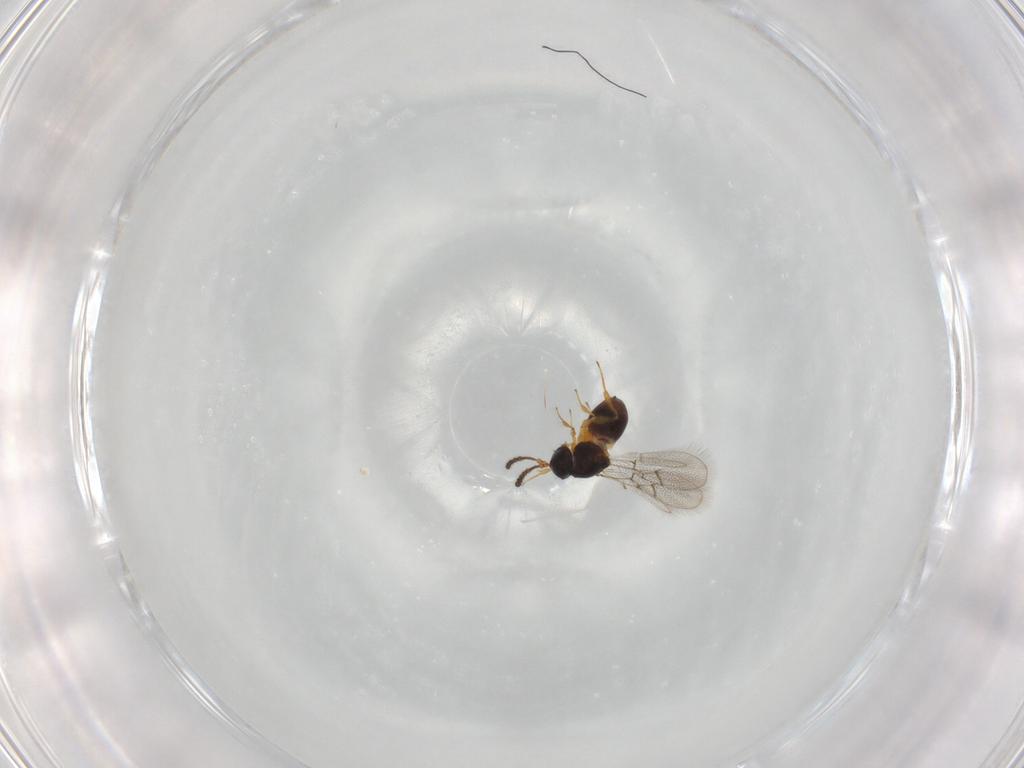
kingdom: Animalia
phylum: Arthropoda
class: Insecta
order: Hymenoptera
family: Figitidae
